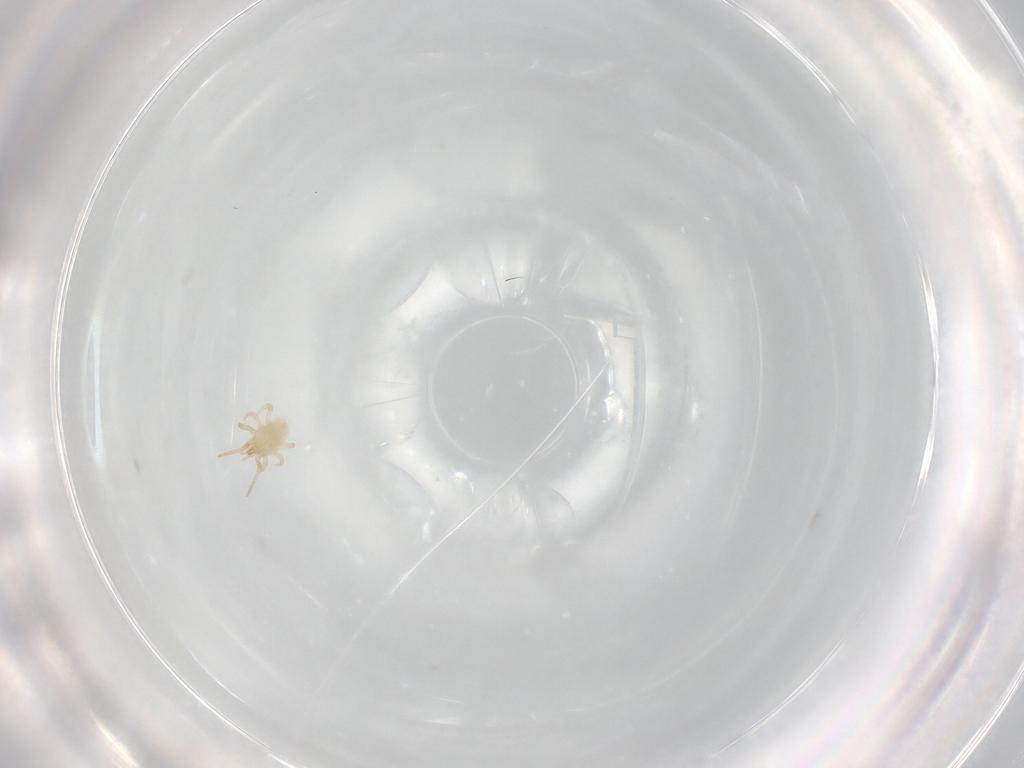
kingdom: Animalia
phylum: Arthropoda
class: Arachnida
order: Mesostigmata
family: Blattisociidae
